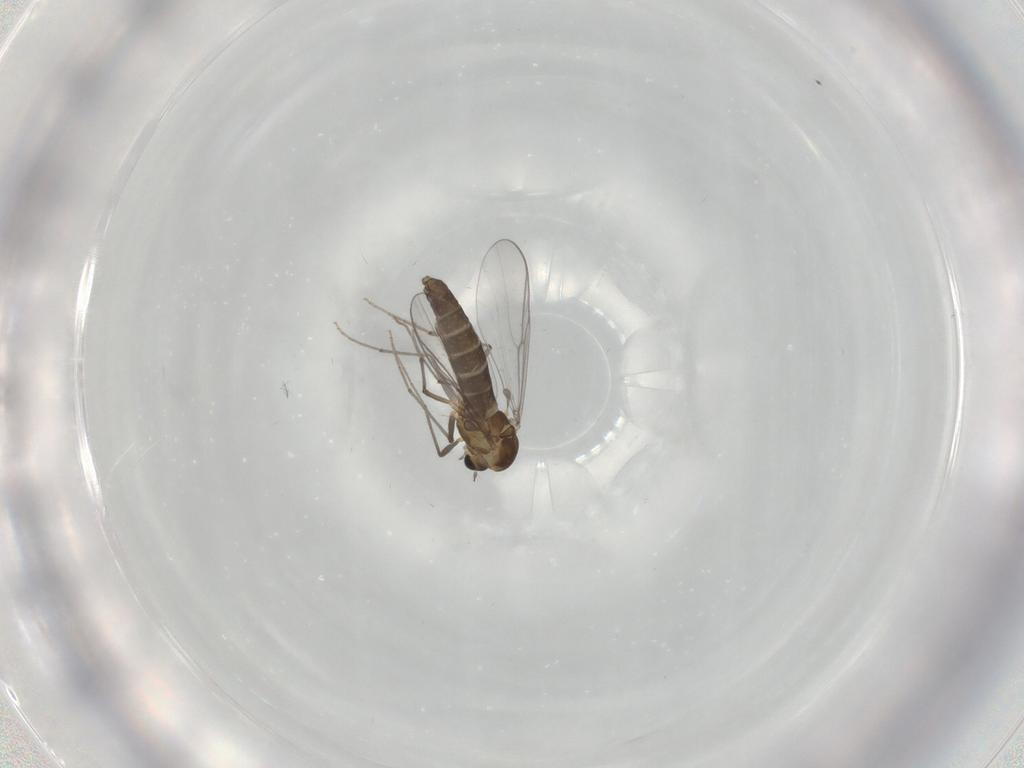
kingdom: Animalia
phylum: Arthropoda
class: Insecta
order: Diptera
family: Chironomidae
